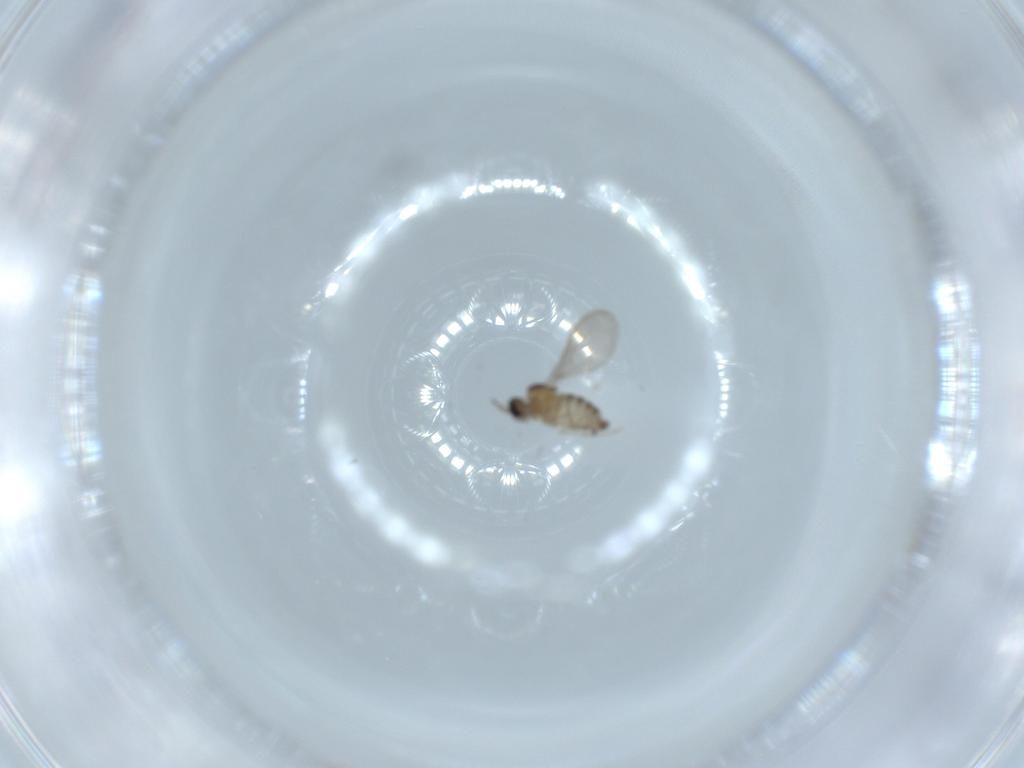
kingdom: Animalia
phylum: Arthropoda
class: Insecta
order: Diptera
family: Cecidomyiidae
